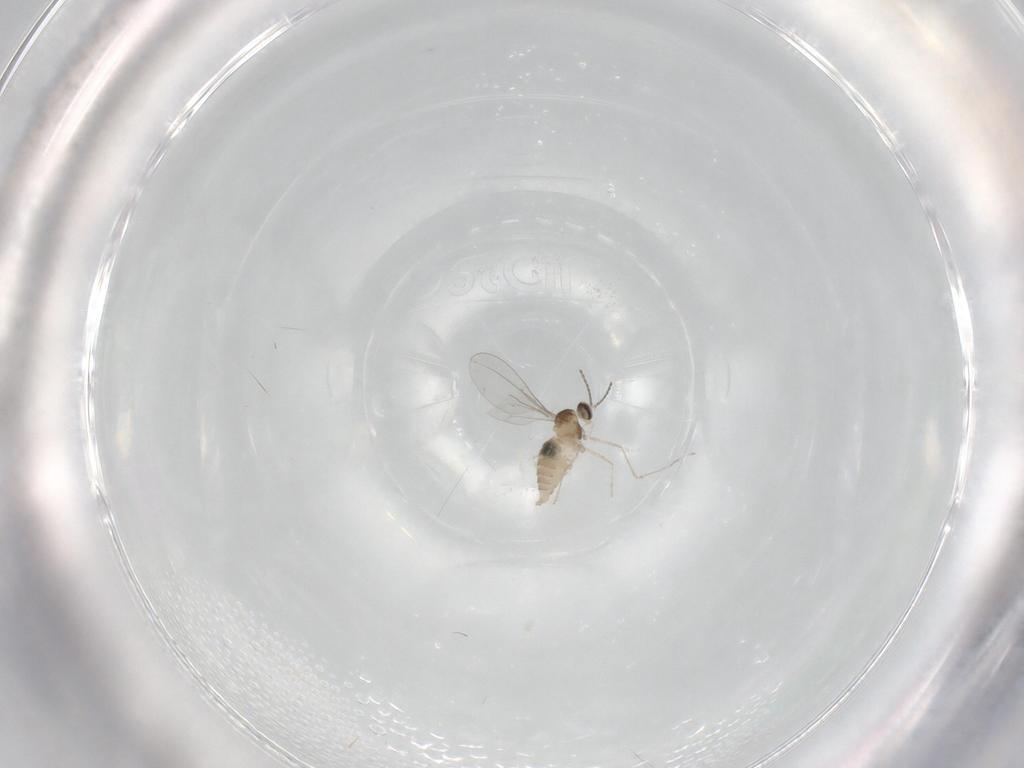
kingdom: Animalia
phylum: Arthropoda
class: Insecta
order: Diptera
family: Cecidomyiidae
